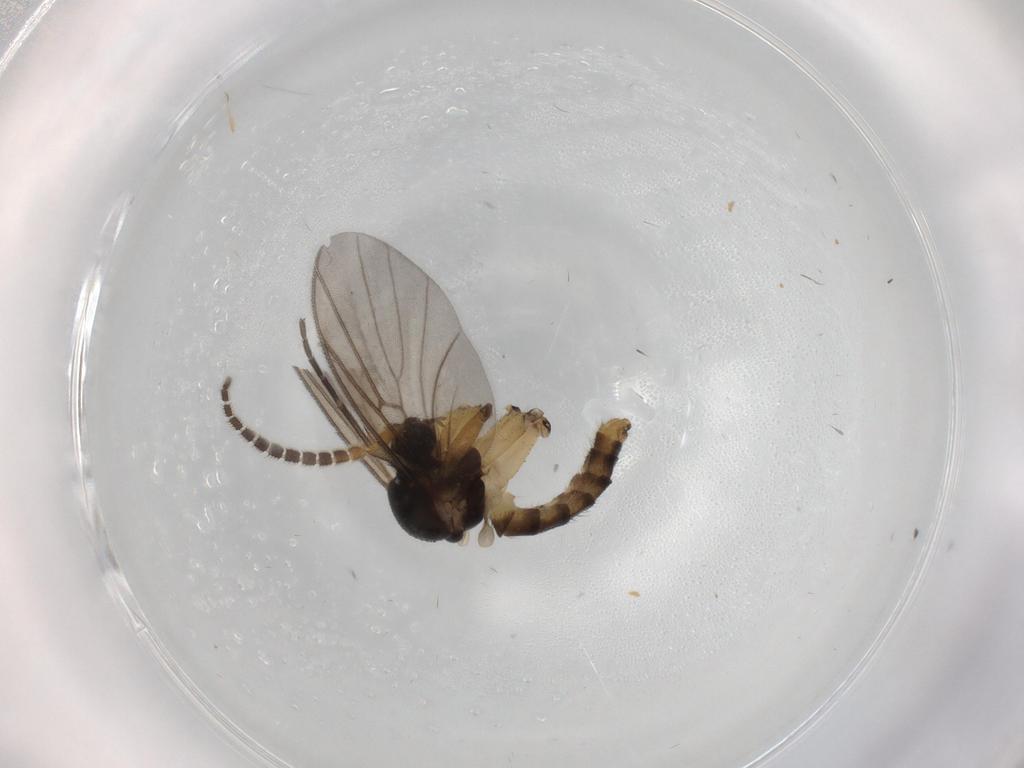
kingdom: Animalia
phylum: Arthropoda
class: Insecta
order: Diptera
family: Mycetophilidae
